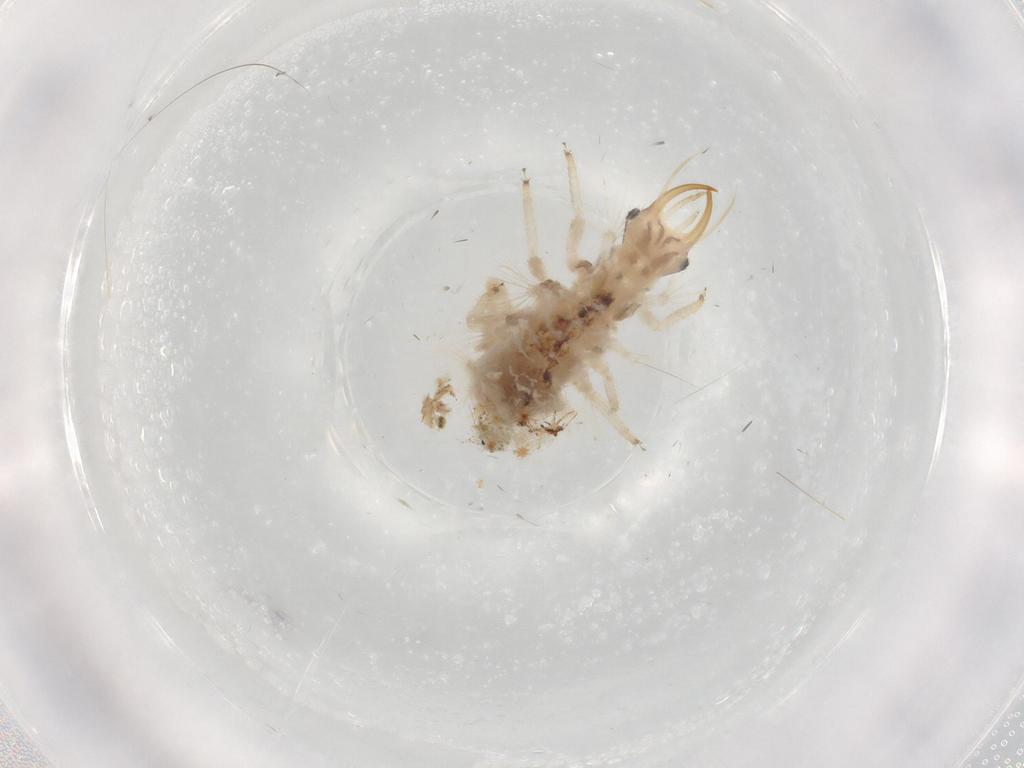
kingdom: Animalia
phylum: Arthropoda
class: Insecta
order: Neuroptera
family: Chrysopidae
